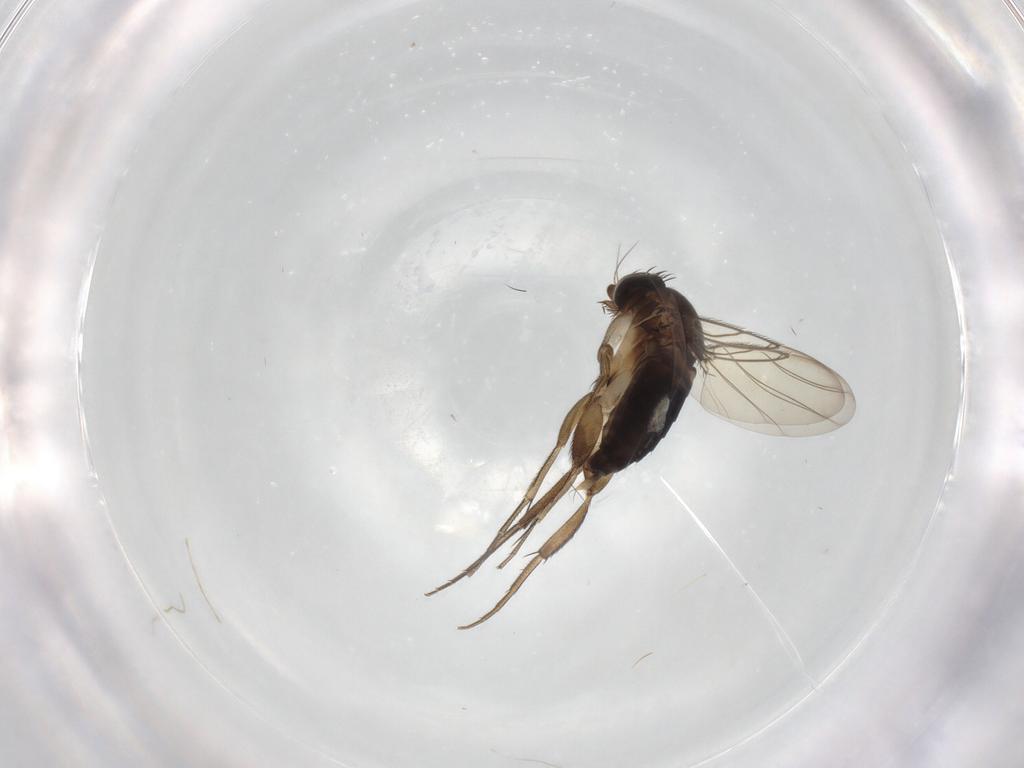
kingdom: Animalia
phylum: Arthropoda
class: Insecta
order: Diptera
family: Phoridae
